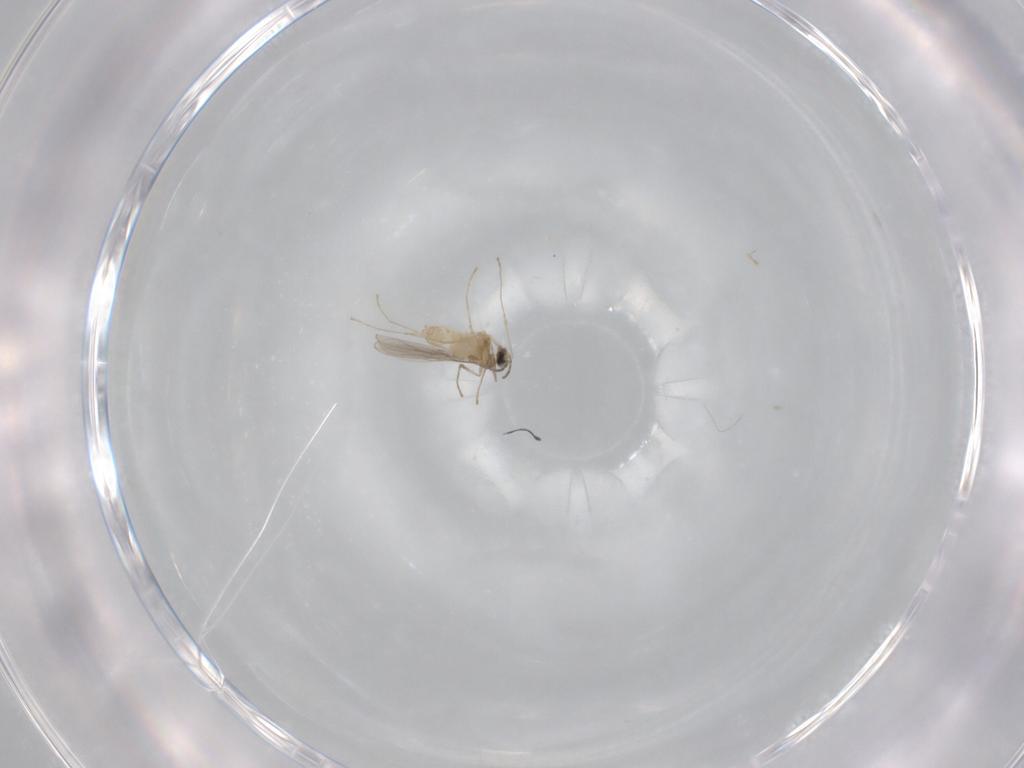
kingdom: Animalia
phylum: Arthropoda
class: Insecta
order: Diptera
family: Cecidomyiidae
